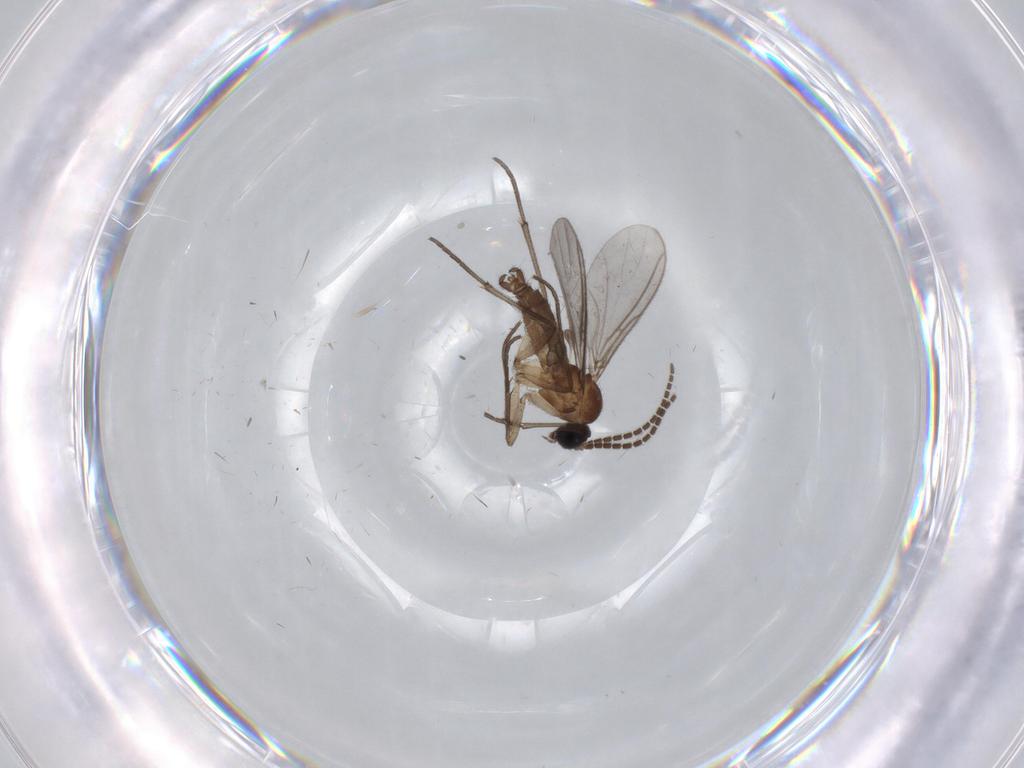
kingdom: Animalia
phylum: Arthropoda
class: Insecta
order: Diptera
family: Sciaridae
